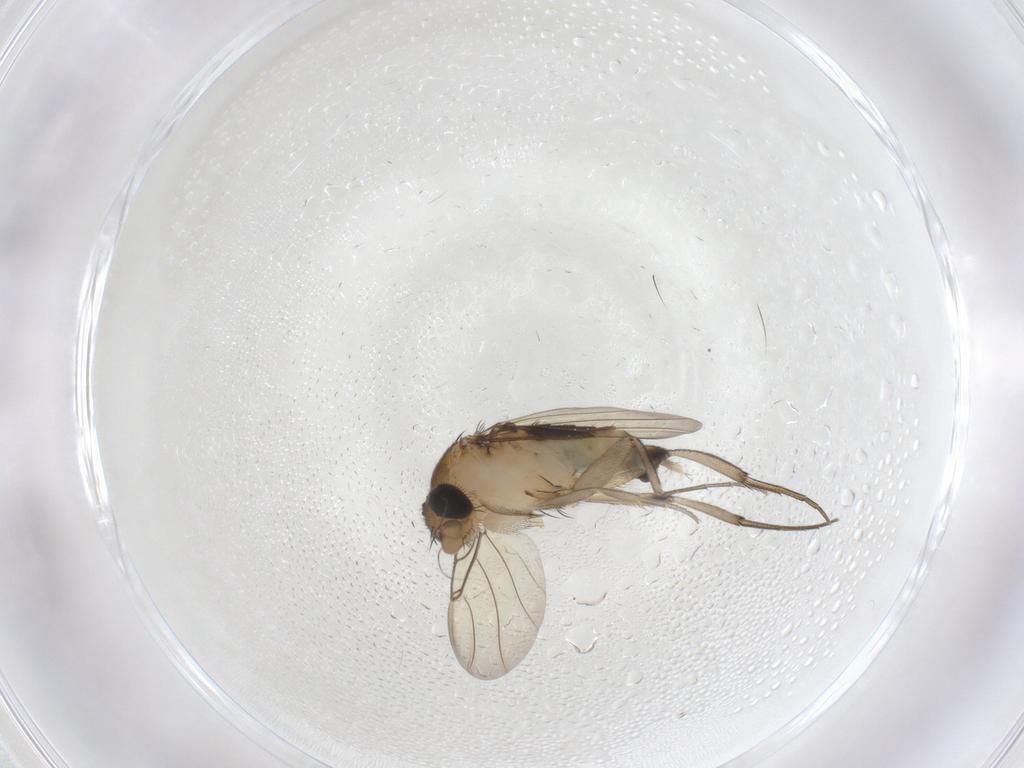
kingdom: Animalia
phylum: Arthropoda
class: Insecta
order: Diptera
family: Phoridae
